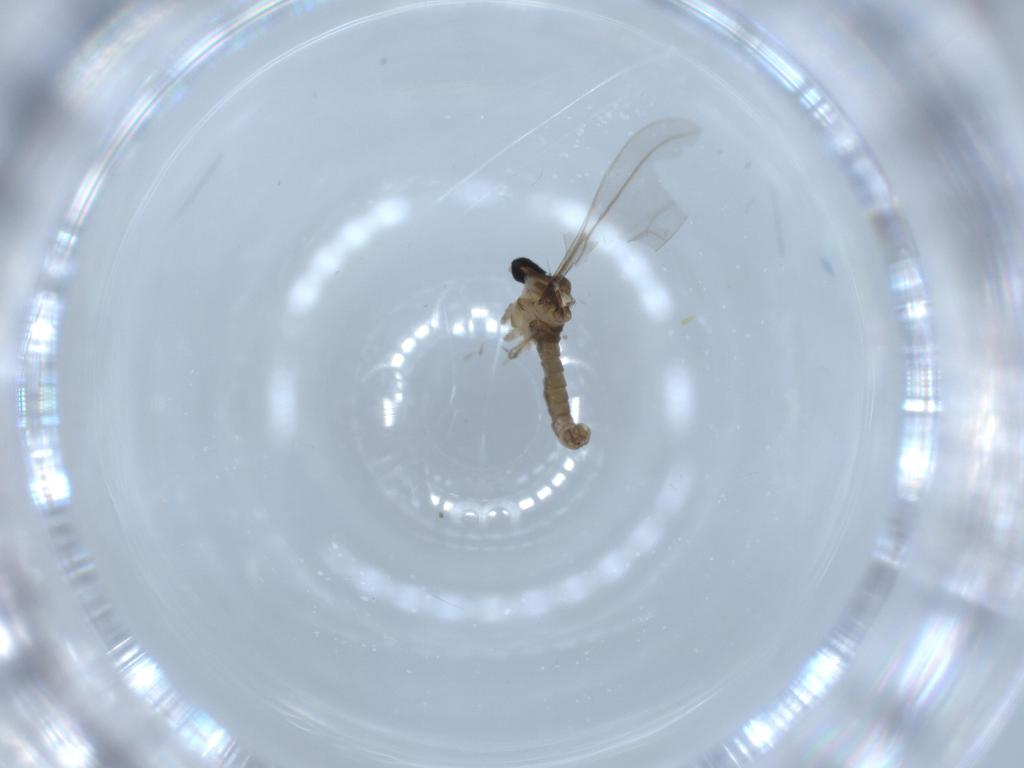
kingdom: Animalia
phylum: Arthropoda
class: Insecta
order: Diptera
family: Cecidomyiidae
